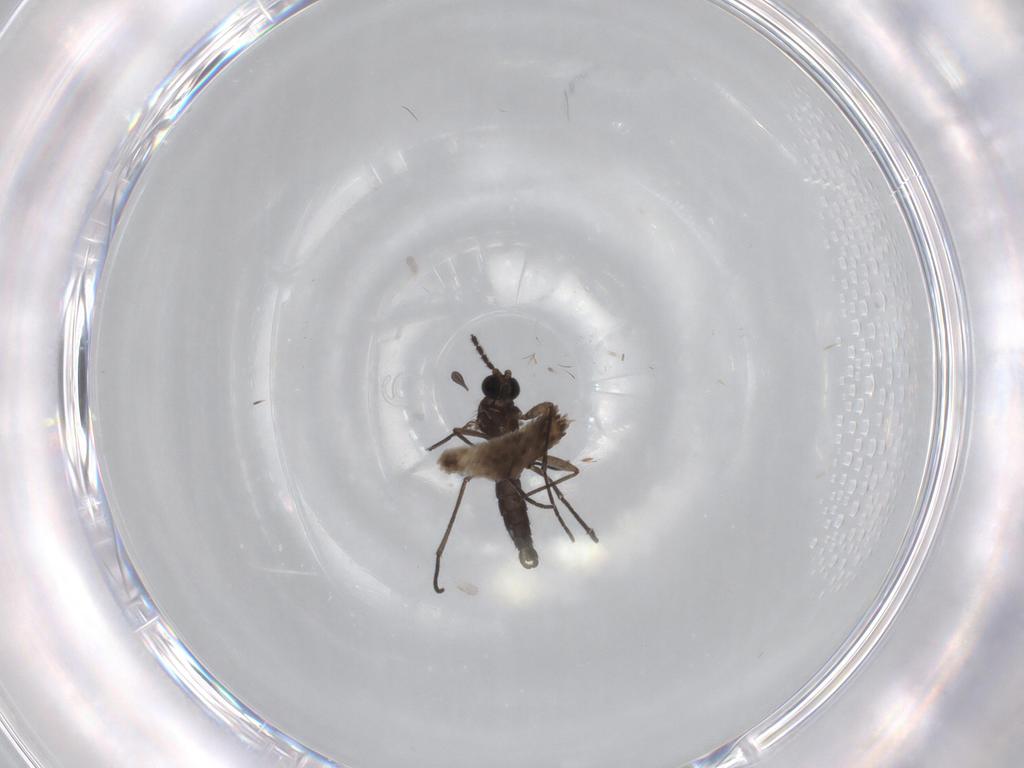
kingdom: Animalia
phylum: Arthropoda
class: Insecta
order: Diptera
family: Sciaridae
